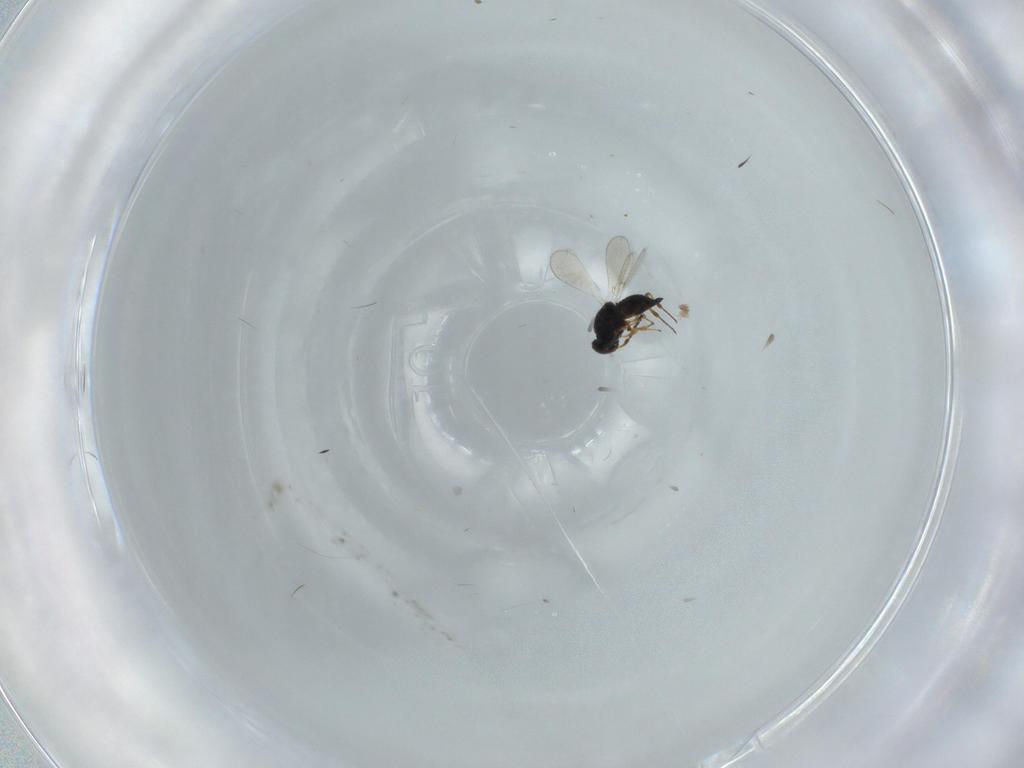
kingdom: Animalia
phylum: Arthropoda
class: Insecta
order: Hymenoptera
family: Platygastridae
